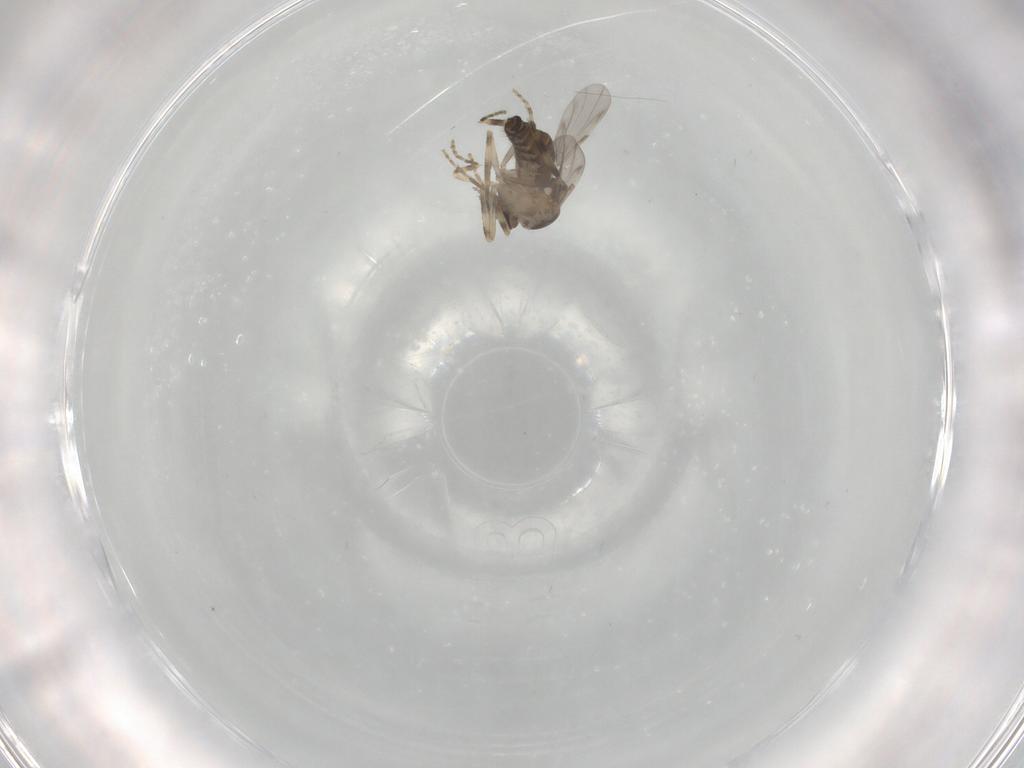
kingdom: Animalia
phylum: Arthropoda
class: Insecta
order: Diptera
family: Ceratopogonidae
